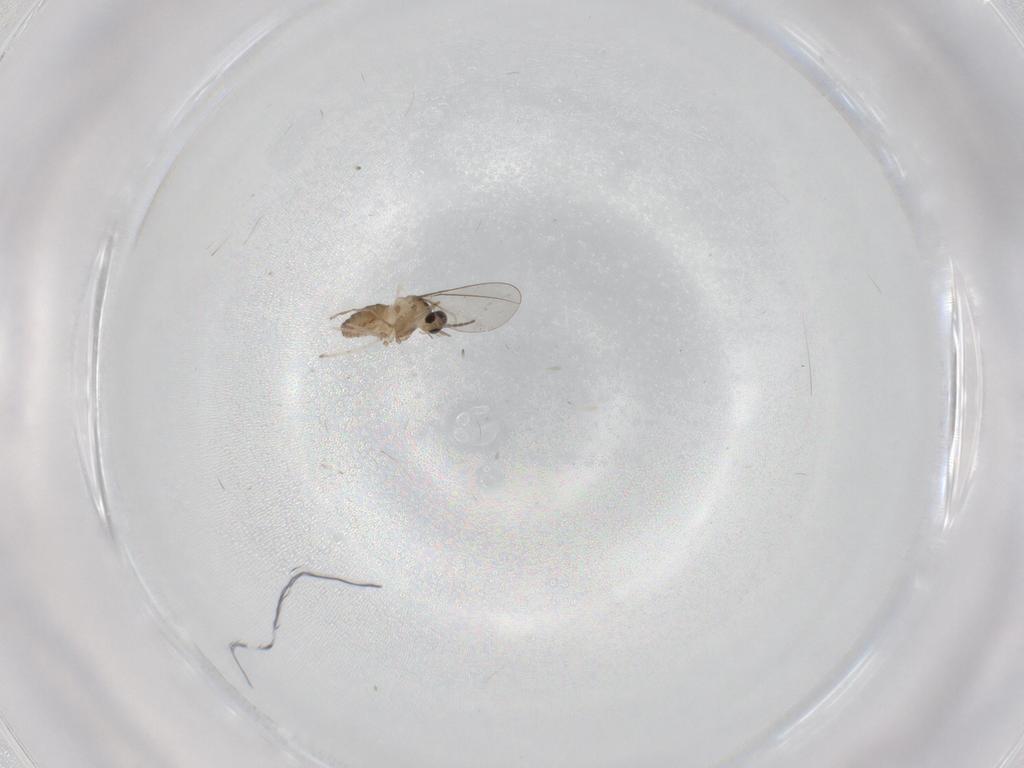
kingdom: Animalia
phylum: Arthropoda
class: Insecta
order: Diptera
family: Cecidomyiidae
